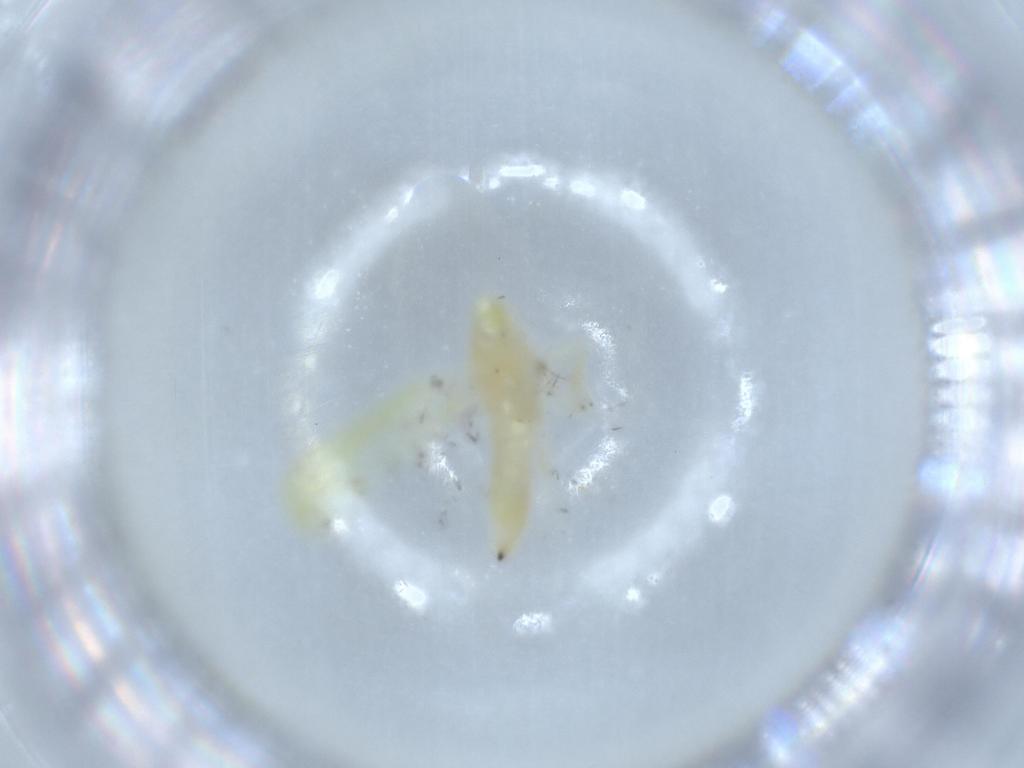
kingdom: Animalia
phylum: Arthropoda
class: Insecta
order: Hemiptera
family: Cicadellidae
